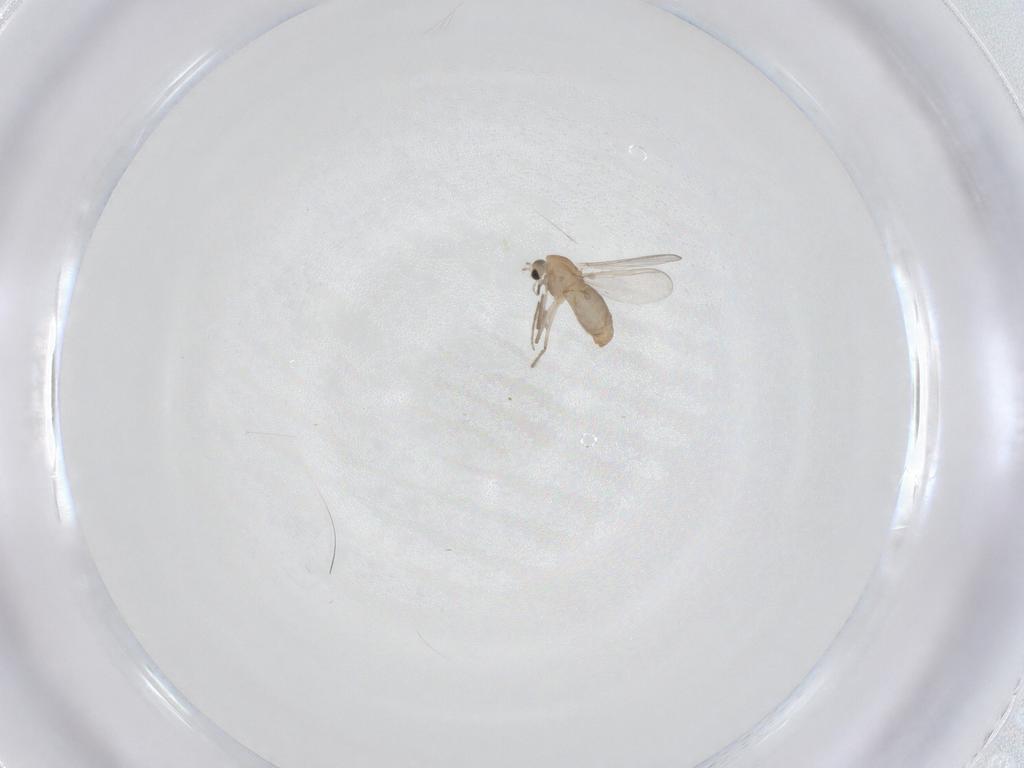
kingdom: Animalia
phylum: Arthropoda
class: Insecta
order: Diptera
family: Chironomidae
